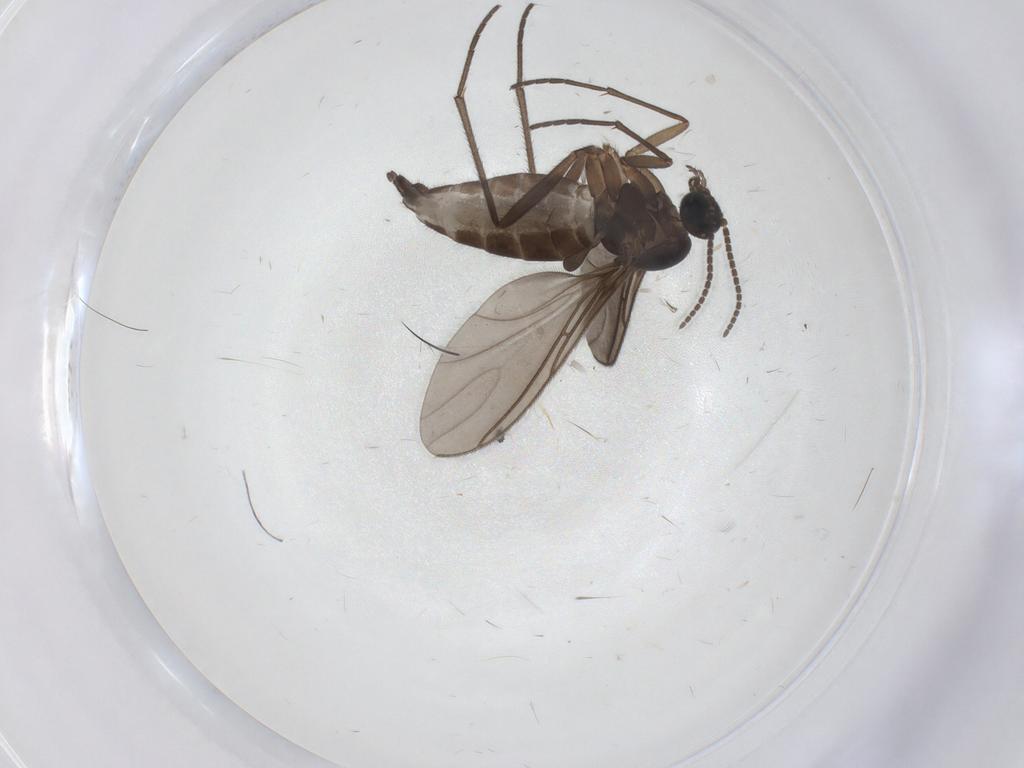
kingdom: Animalia
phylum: Arthropoda
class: Insecta
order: Diptera
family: Sciaridae
